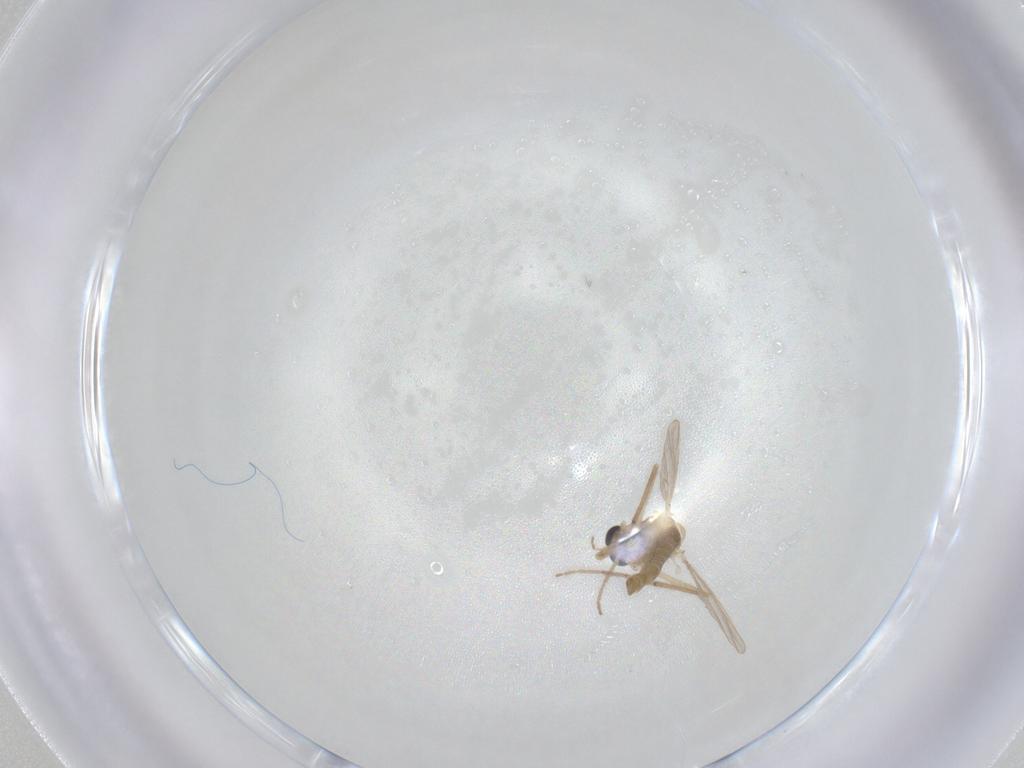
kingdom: Animalia
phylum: Arthropoda
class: Insecta
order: Diptera
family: Chironomidae
